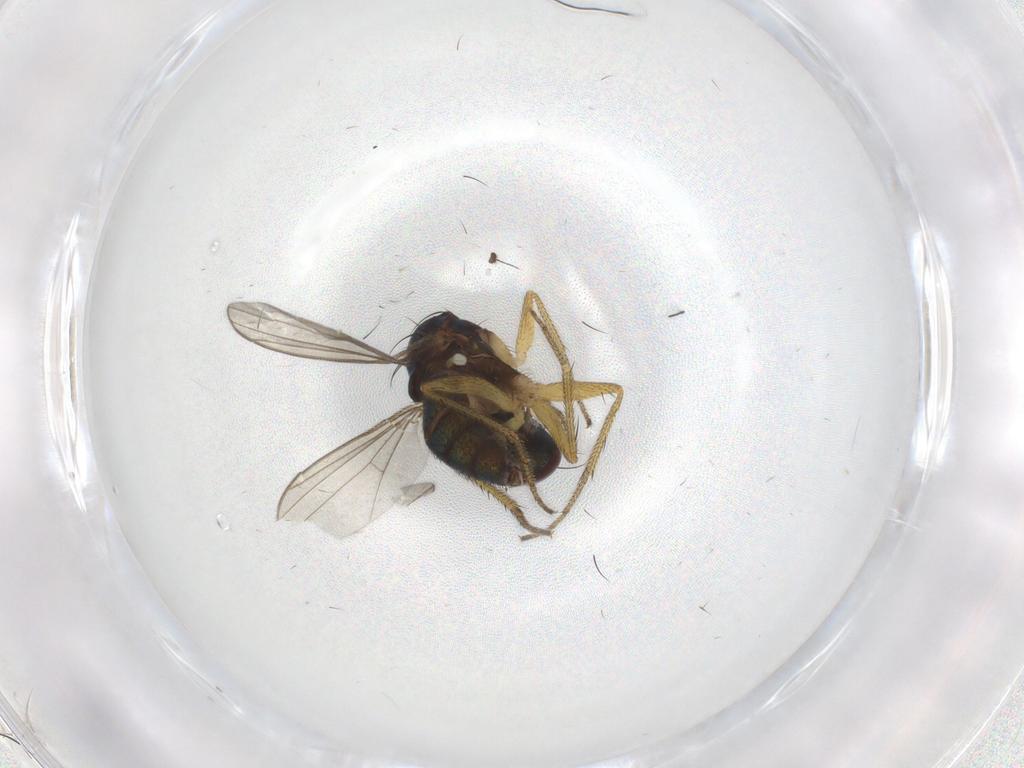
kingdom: Animalia
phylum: Arthropoda
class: Insecta
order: Diptera
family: Dolichopodidae
